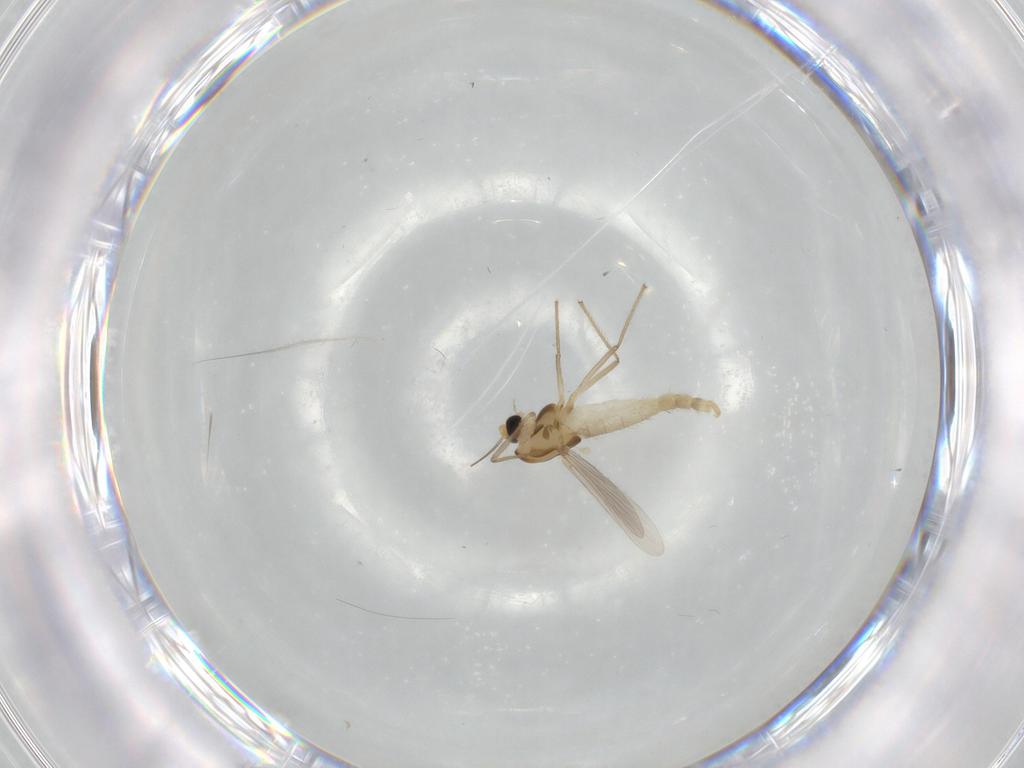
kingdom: Animalia
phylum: Arthropoda
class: Insecta
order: Diptera
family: Chironomidae
